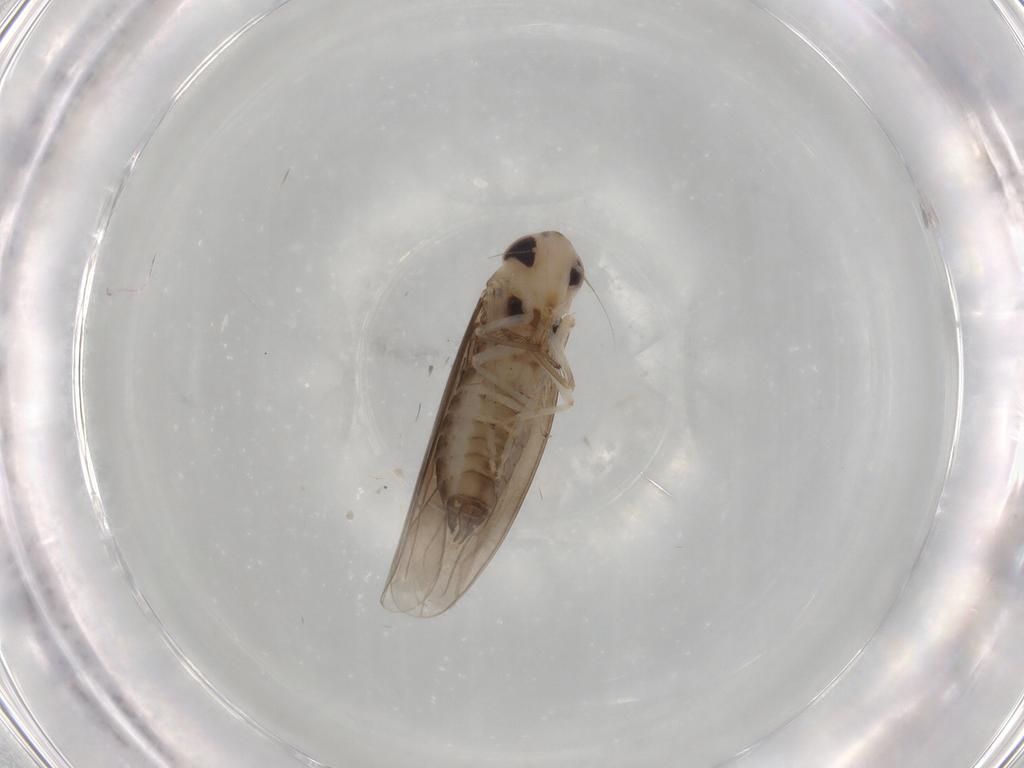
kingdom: Animalia
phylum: Arthropoda
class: Insecta
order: Hemiptera
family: Cicadellidae
